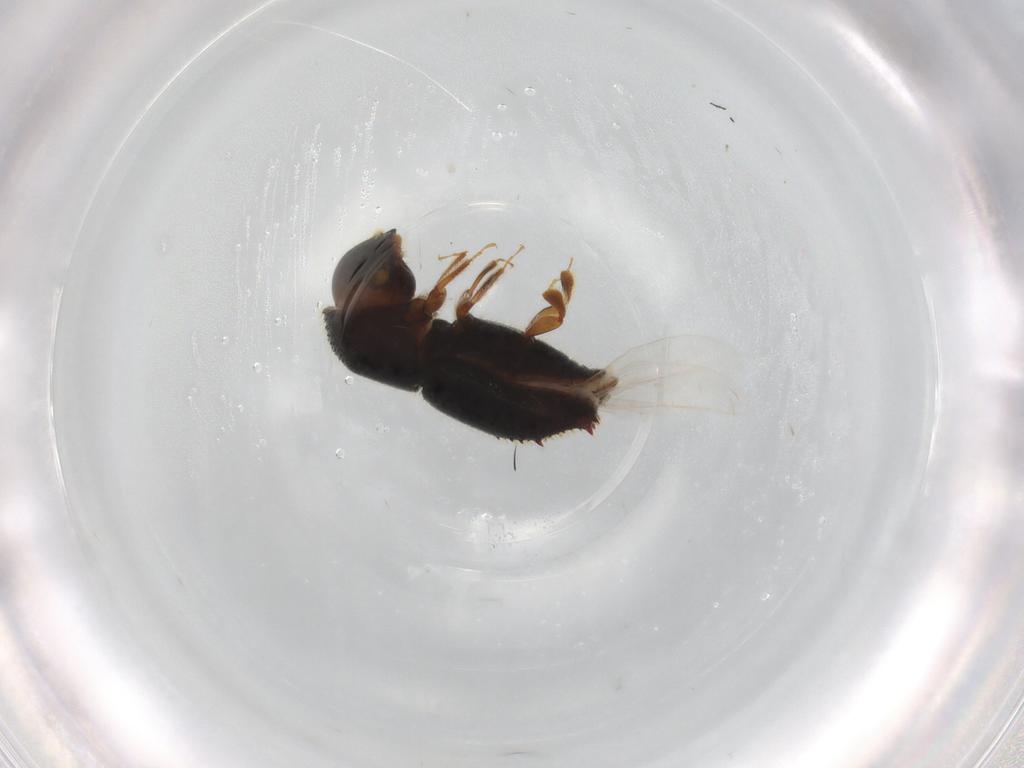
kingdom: Animalia
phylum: Arthropoda
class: Insecta
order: Coleoptera
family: Curculionidae
